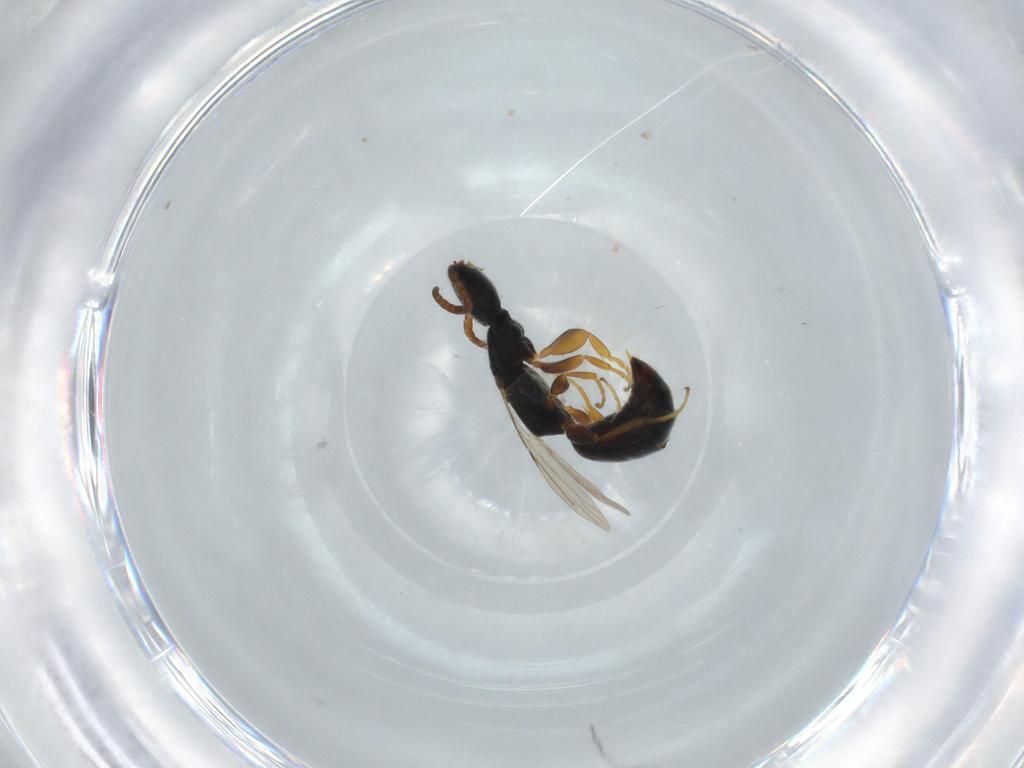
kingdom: Animalia
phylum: Arthropoda
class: Insecta
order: Hymenoptera
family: Bethylidae
